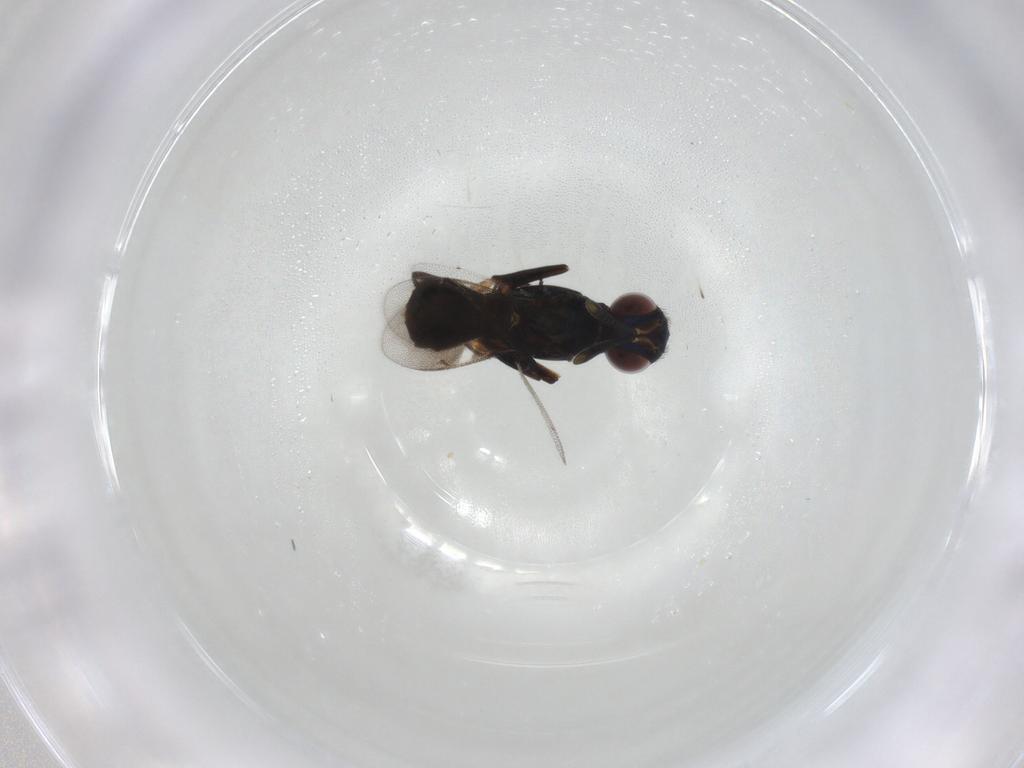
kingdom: Animalia
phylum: Arthropoda
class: Insecta
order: Hymenoptera
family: Eupelmidae
